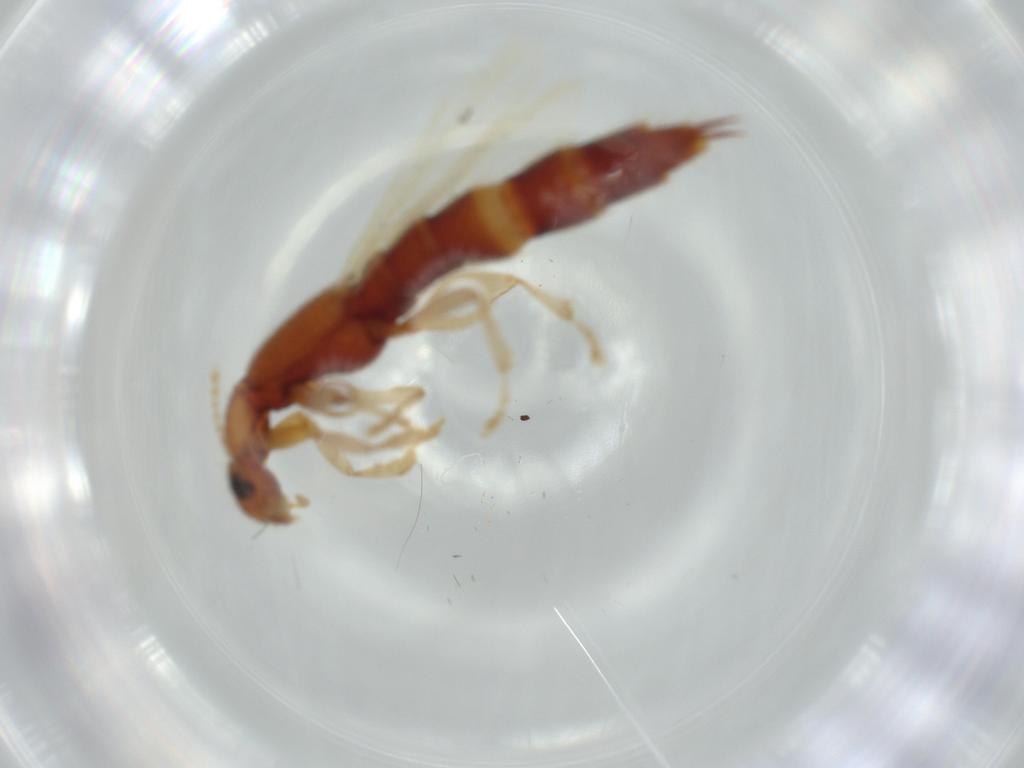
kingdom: Animalia
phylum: Arthropoda
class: Insecta
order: Coleoptera
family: Staphylinidae
